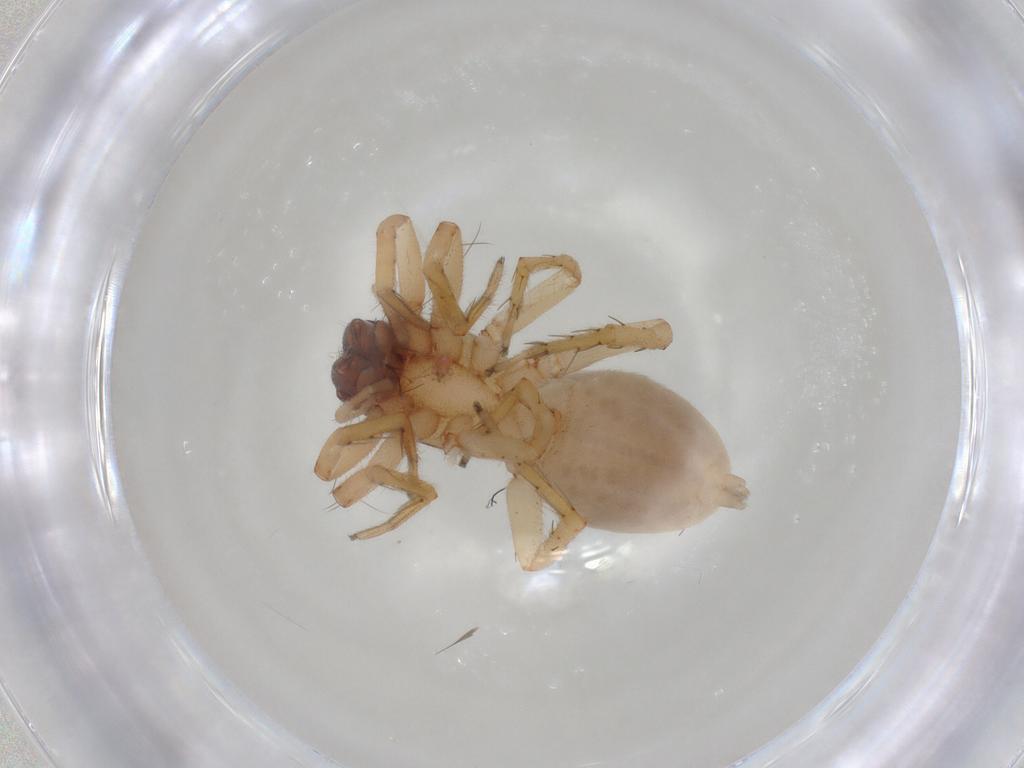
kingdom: Animalia
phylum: Arthropoda
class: Arachnida
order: Araneae
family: Clubionidae
